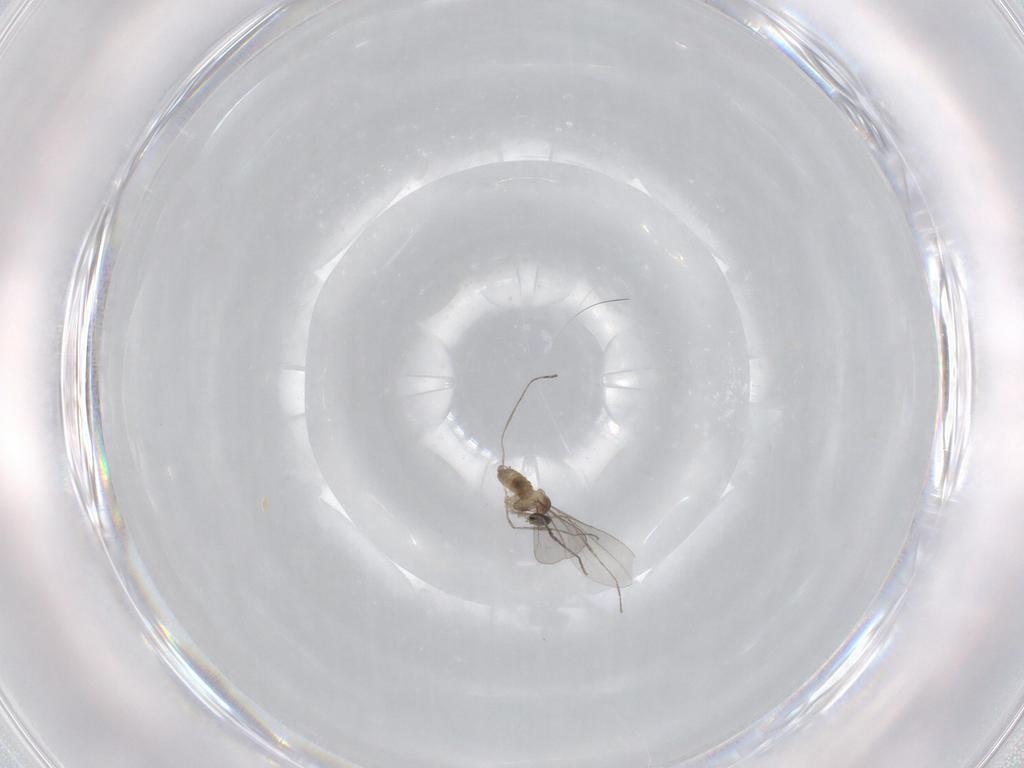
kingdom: Animalia
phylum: Arthropoda
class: Insecta
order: Diptera
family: Cecidomyiidae
